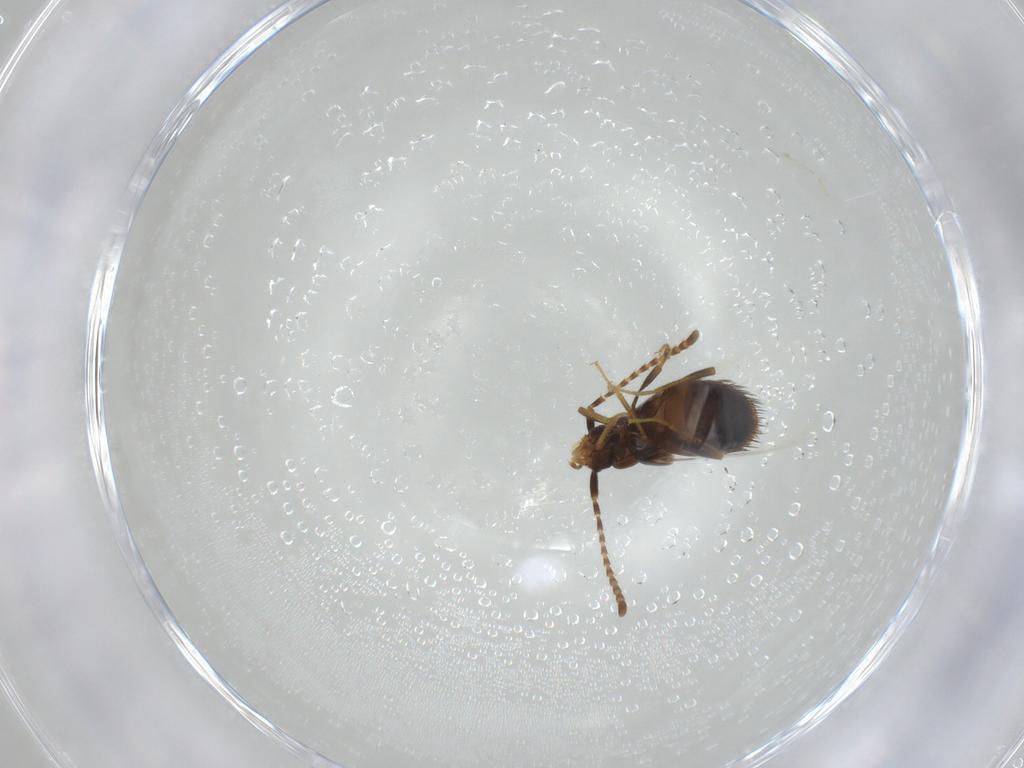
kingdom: Animalia
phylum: Arthropoda
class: Insecta
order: Coleoptera
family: Staphylinidae
